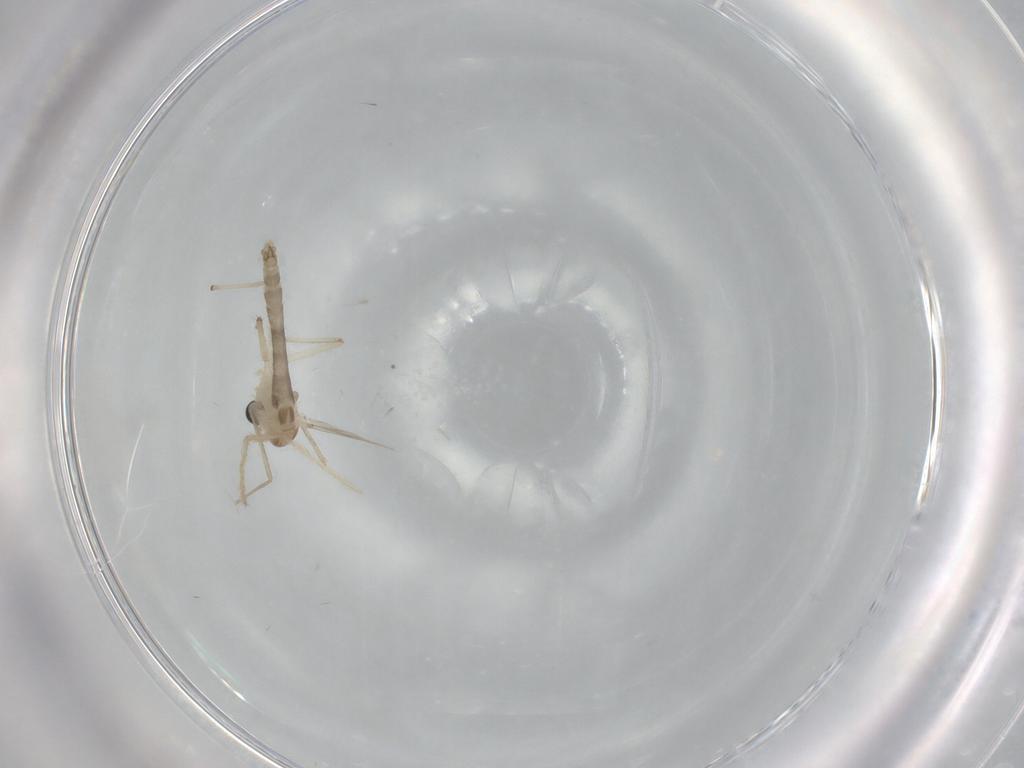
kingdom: Animalia
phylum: Arthropoda
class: Insecta
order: Diptera
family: Chironomidae
